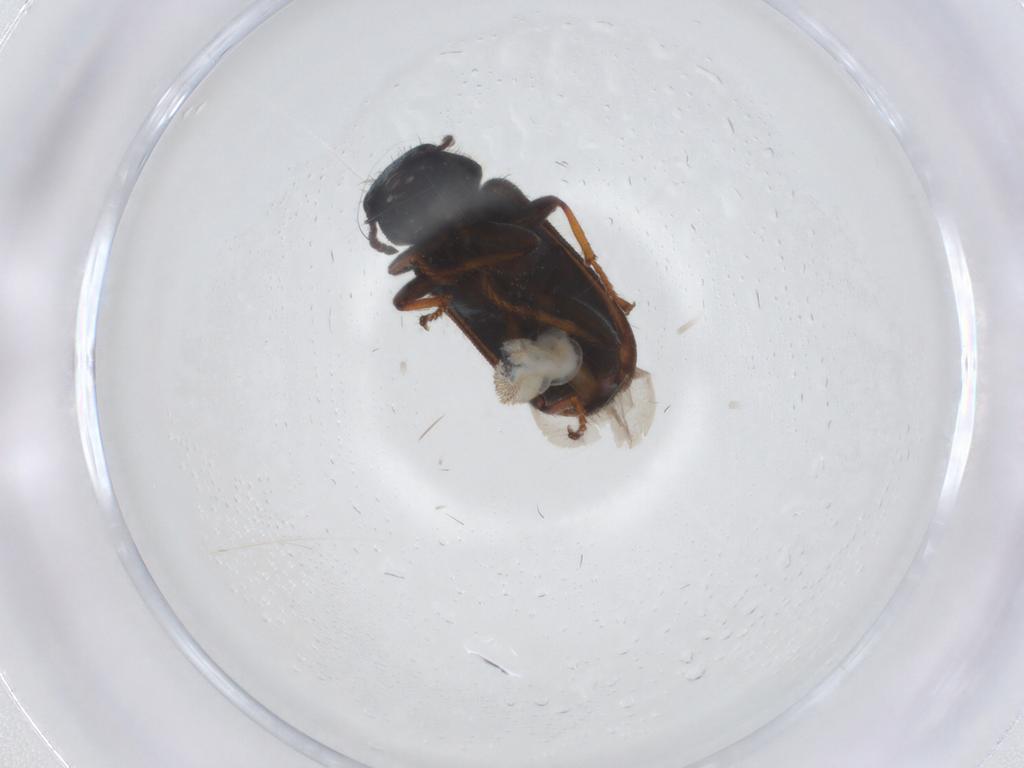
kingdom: Animalia
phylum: Arthropoda
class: Insecta
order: Coleoptera
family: Melyridae
